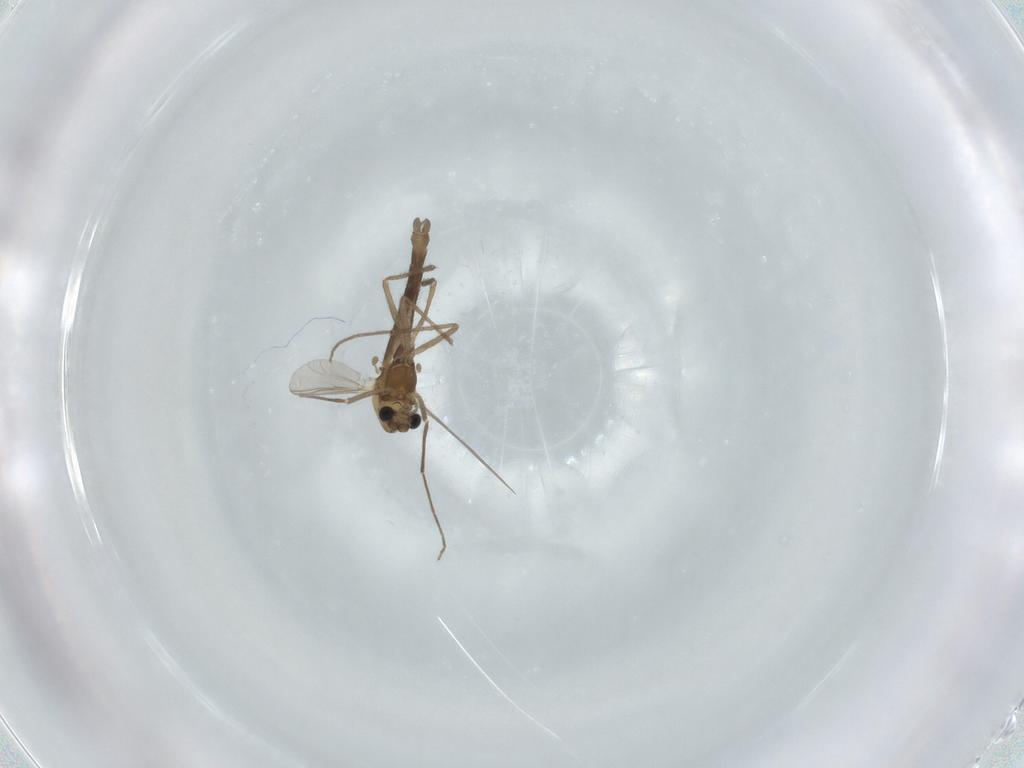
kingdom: Animalia
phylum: Arthropoda
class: Insecta
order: Diptera
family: Chironomidae
